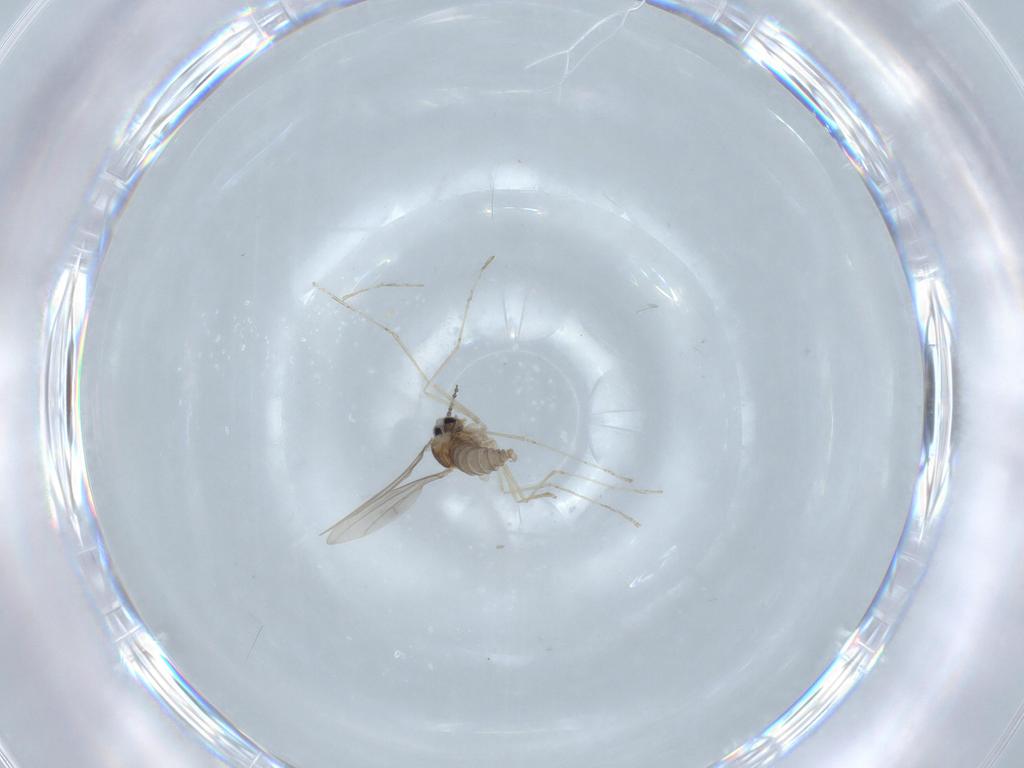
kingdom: Animalia
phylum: Arthropoda
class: Insecta
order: Diptera
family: Cecidomyiidae
